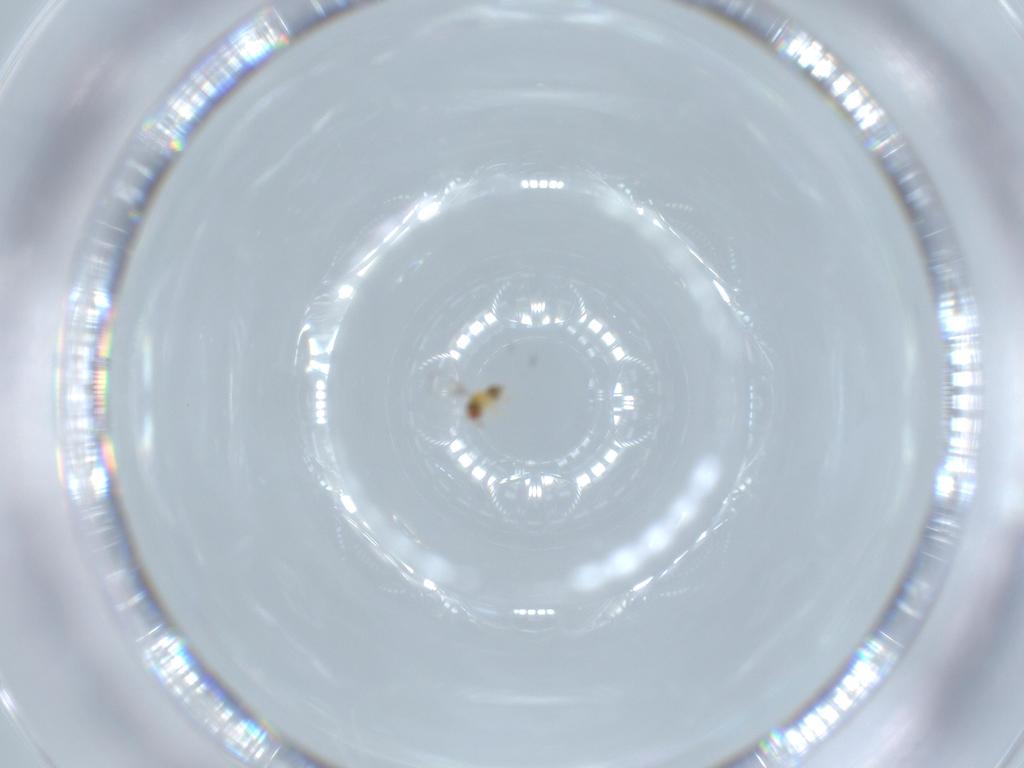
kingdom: Animalia
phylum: Arthropoda
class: Insecta
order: Hymenoptera
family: Trichogrammatidae
